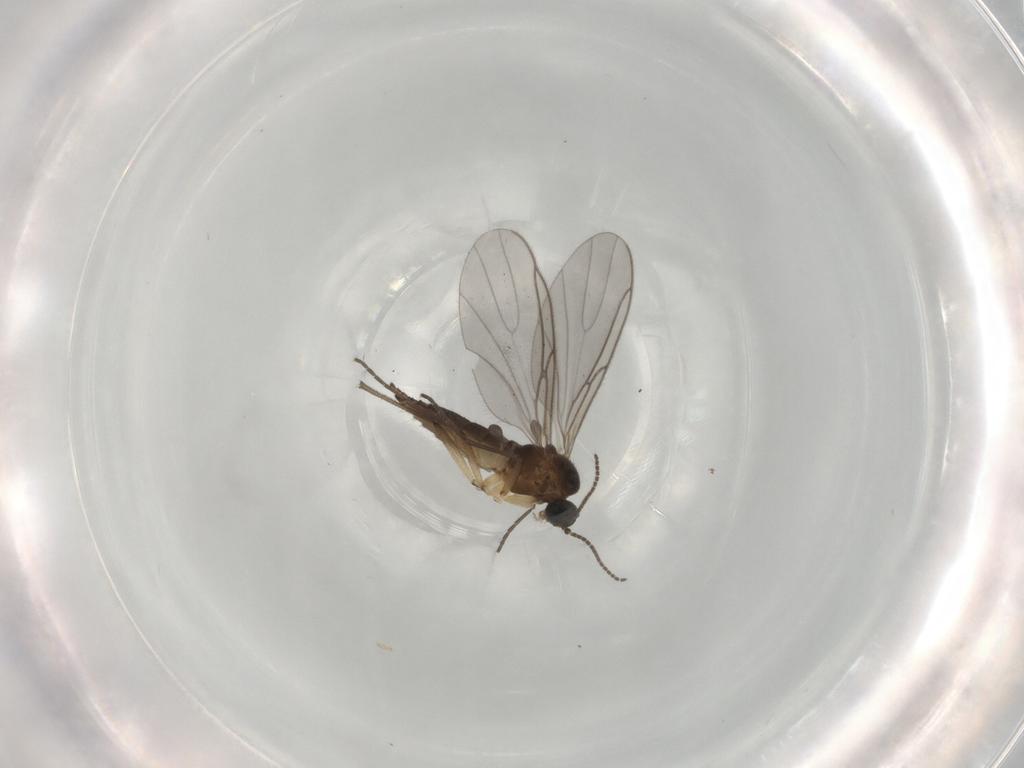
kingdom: Animalia
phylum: Arthropoda
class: Insecta
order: Diptera
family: Cecidomyiidae
